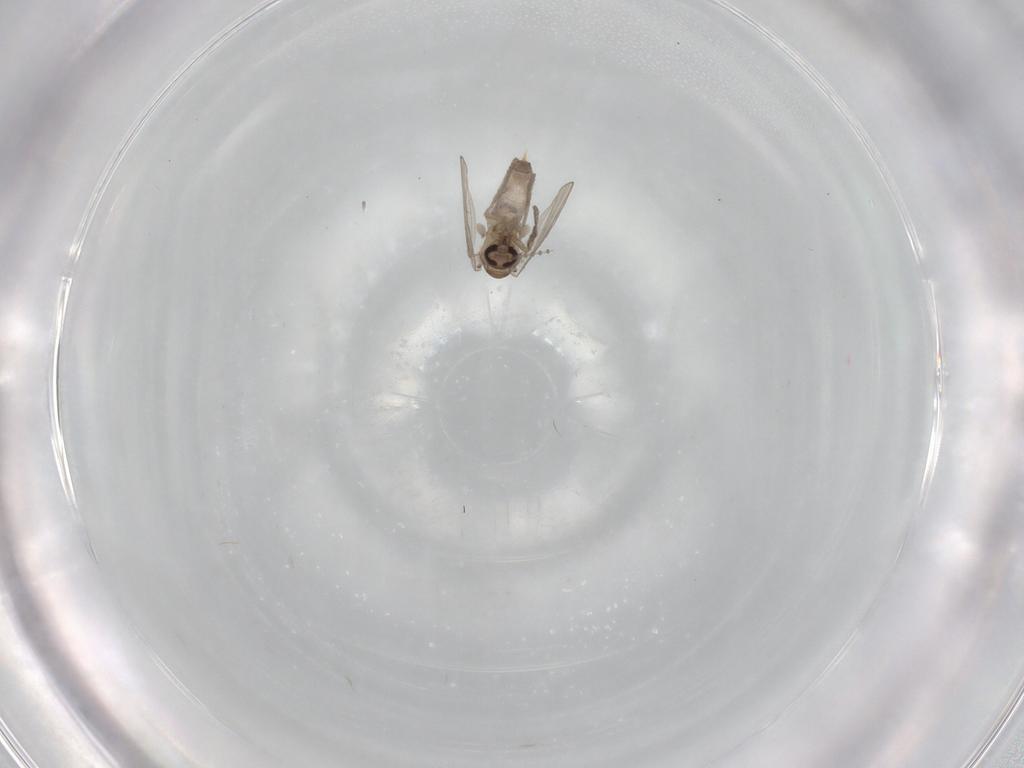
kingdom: Animalia
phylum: Arthropoda
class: Insecta
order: Diptera
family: Psychodidae
